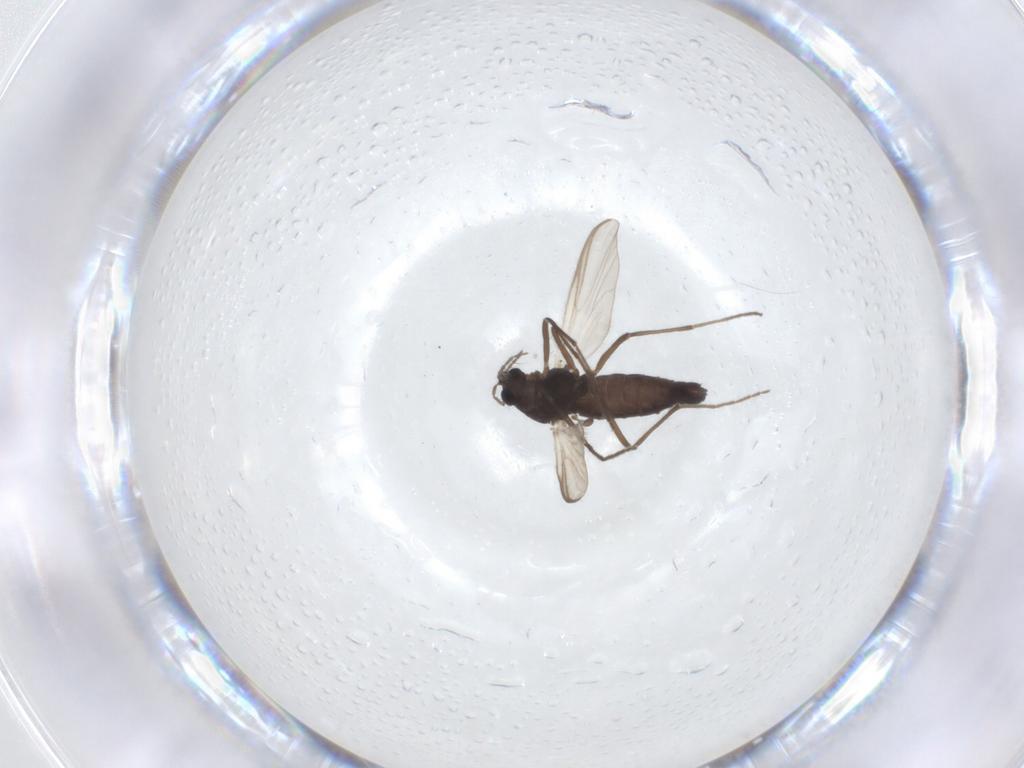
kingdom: Animalia
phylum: Arthropoda
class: Insecta
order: Diptera
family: Chironomidae
